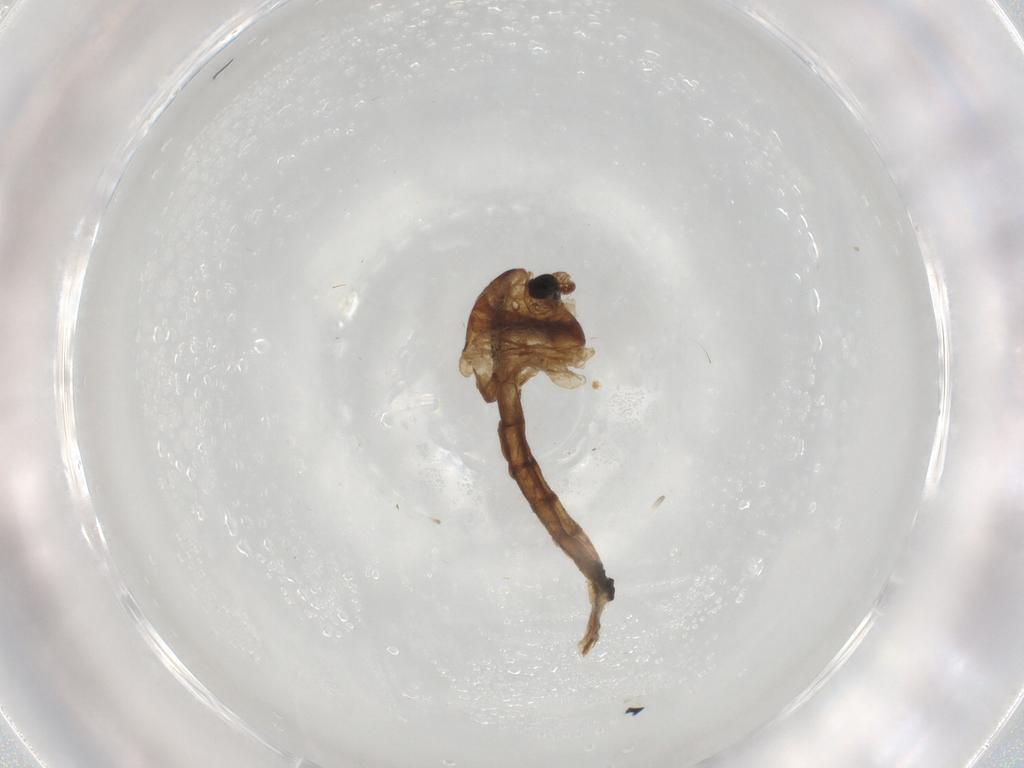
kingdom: Animalia
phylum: Arthropoda
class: Insecta
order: Diptera
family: Chironomidae
